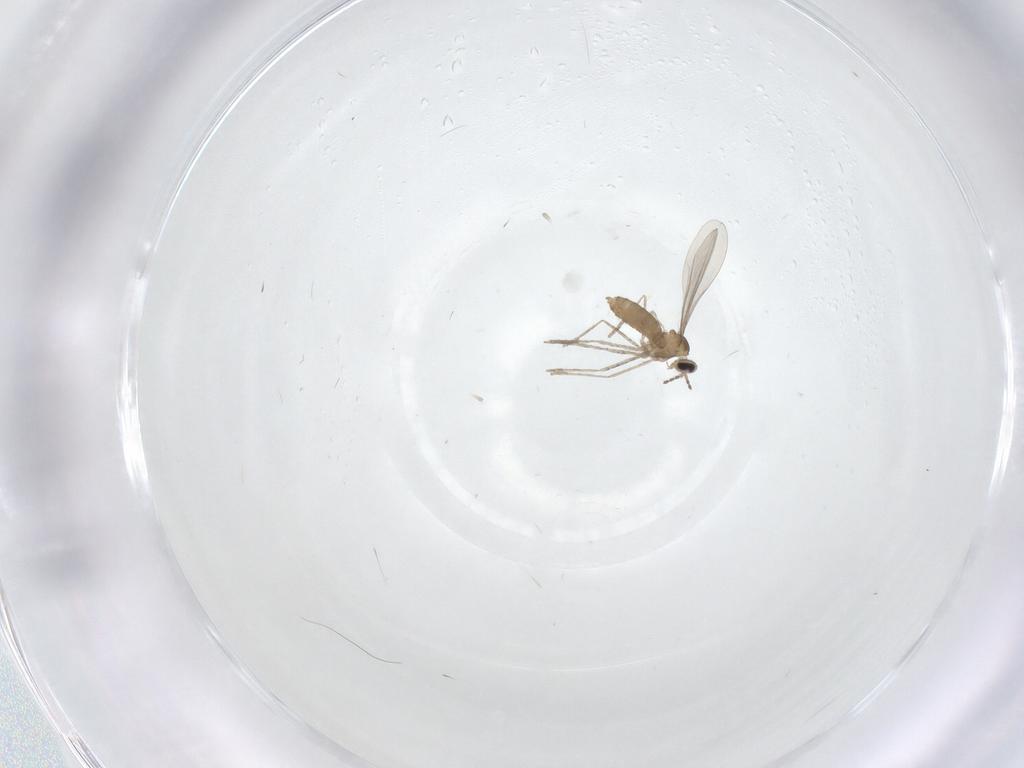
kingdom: Animalia
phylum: Arthropoda
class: Insecta
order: Diptera
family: Cecidomyiidae
